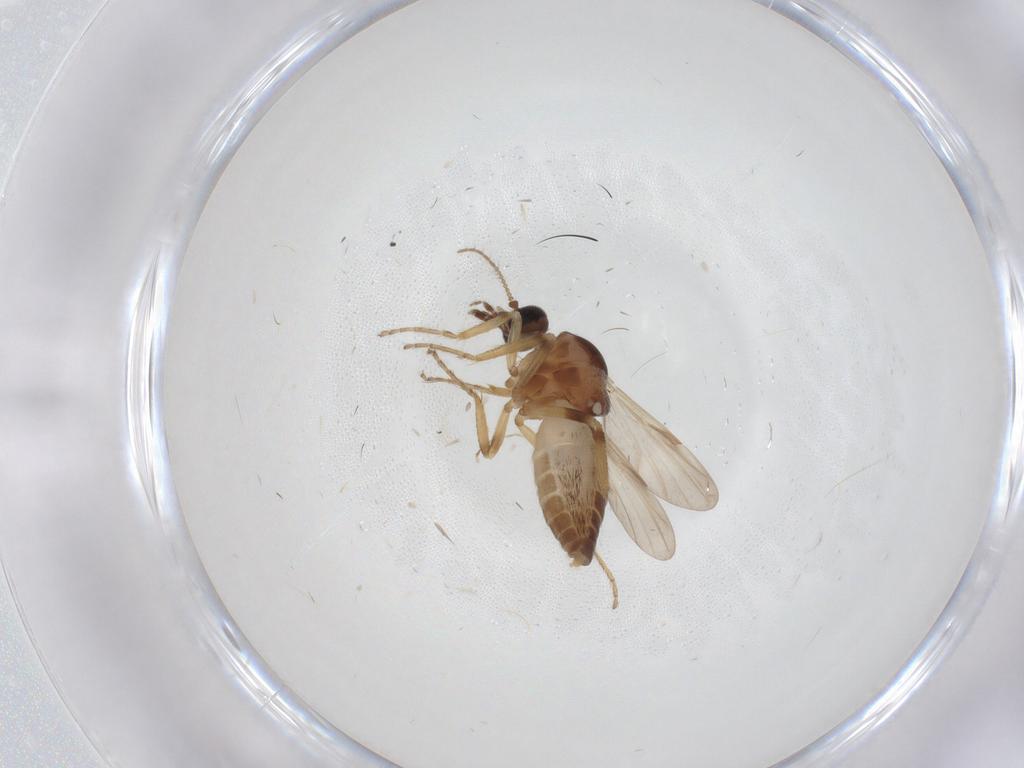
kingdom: Animalia
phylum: Arthropoda
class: Insecta
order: Diptera
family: Ceratopogonidae
